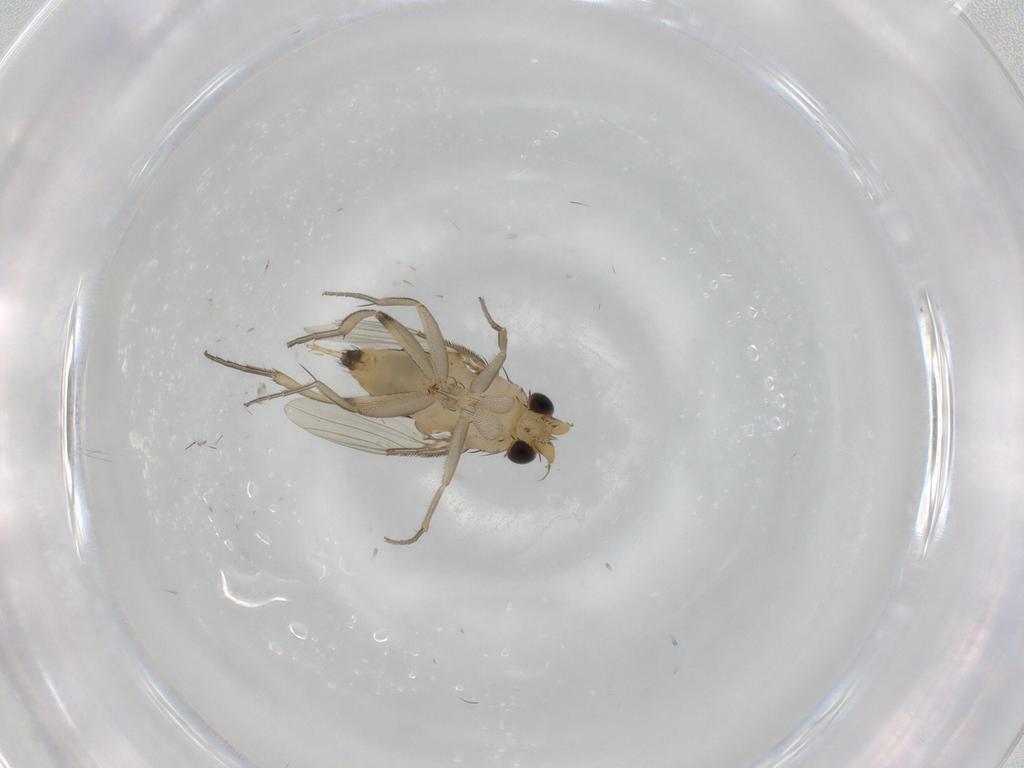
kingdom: Animalia
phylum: Arthropoda
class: Insecta
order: Diptera
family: Phoridae
